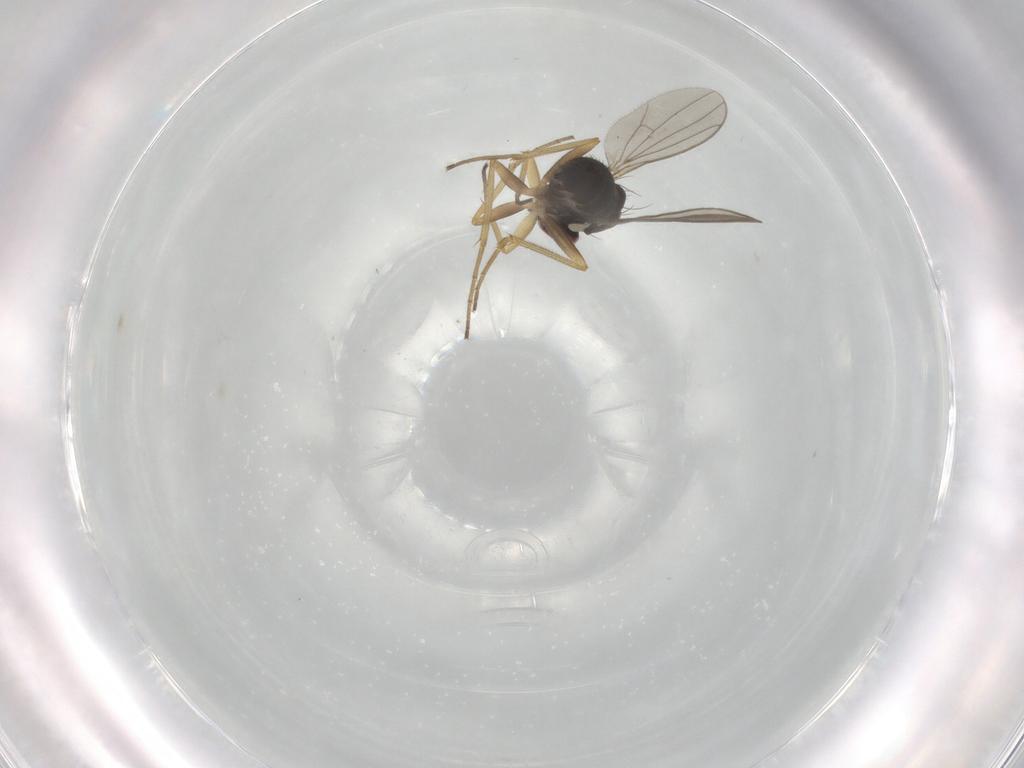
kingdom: Animalia
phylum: Arthropoda
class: Insecta
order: Diptera
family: Dolichopodidae
